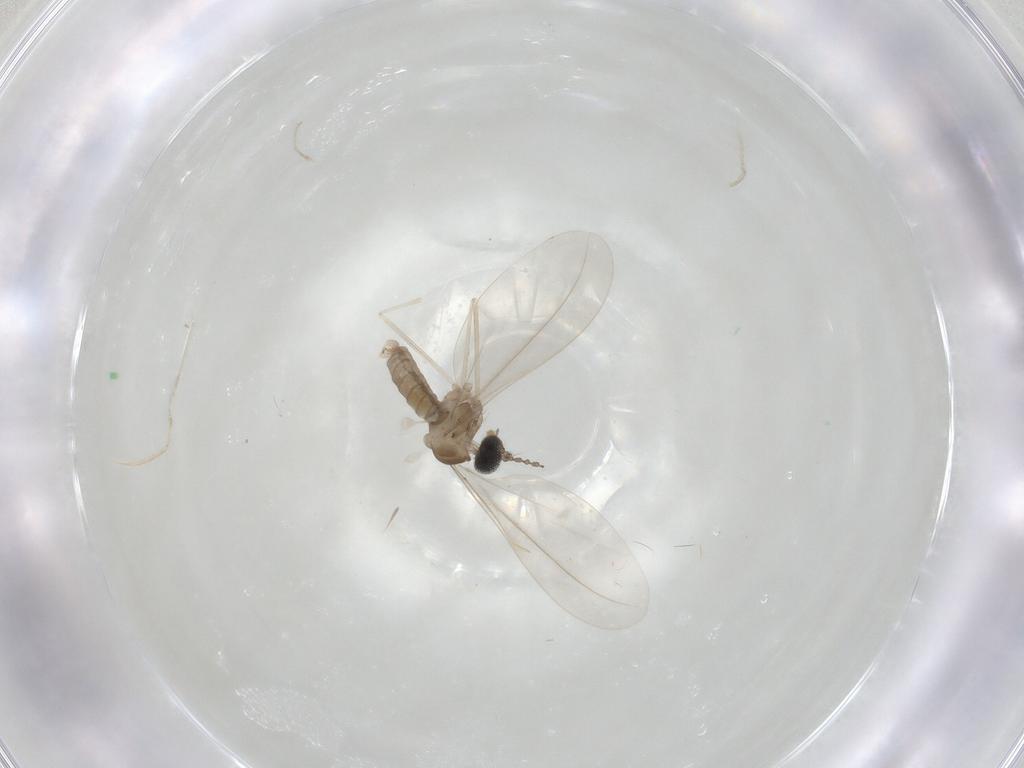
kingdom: Animalia
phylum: Arthropoda
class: Insecta
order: Diptera
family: Cecidomyiidae
